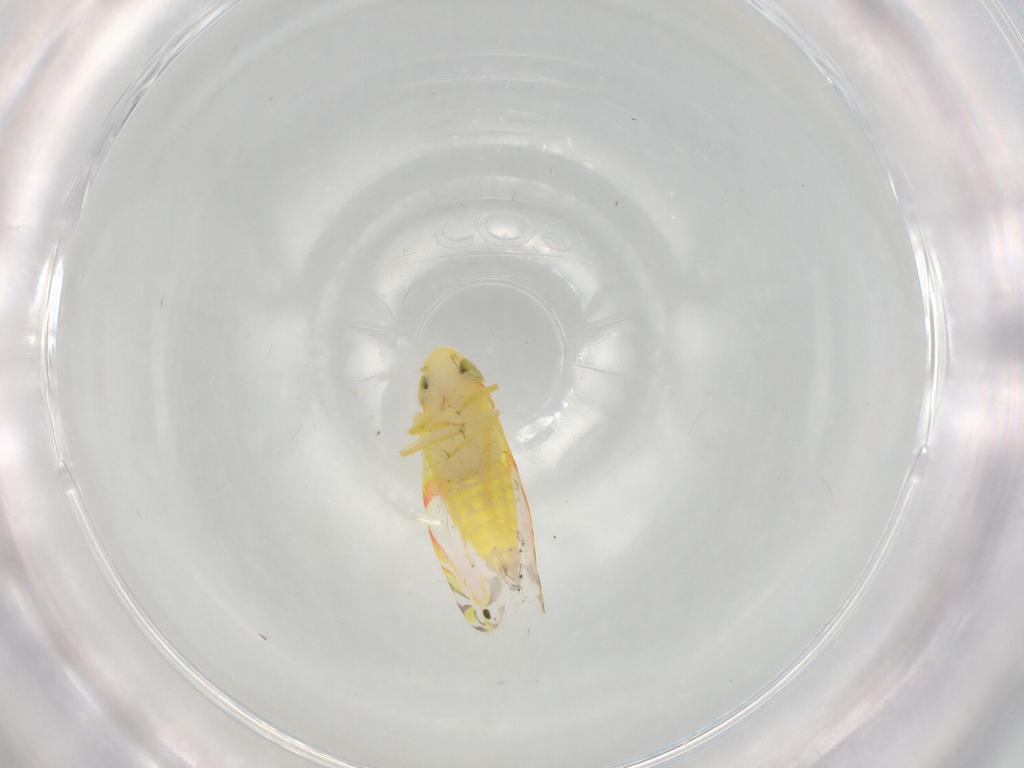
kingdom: Animalia
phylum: Arthropoda
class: Insecta
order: Hemiptera
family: Cicadellidae
